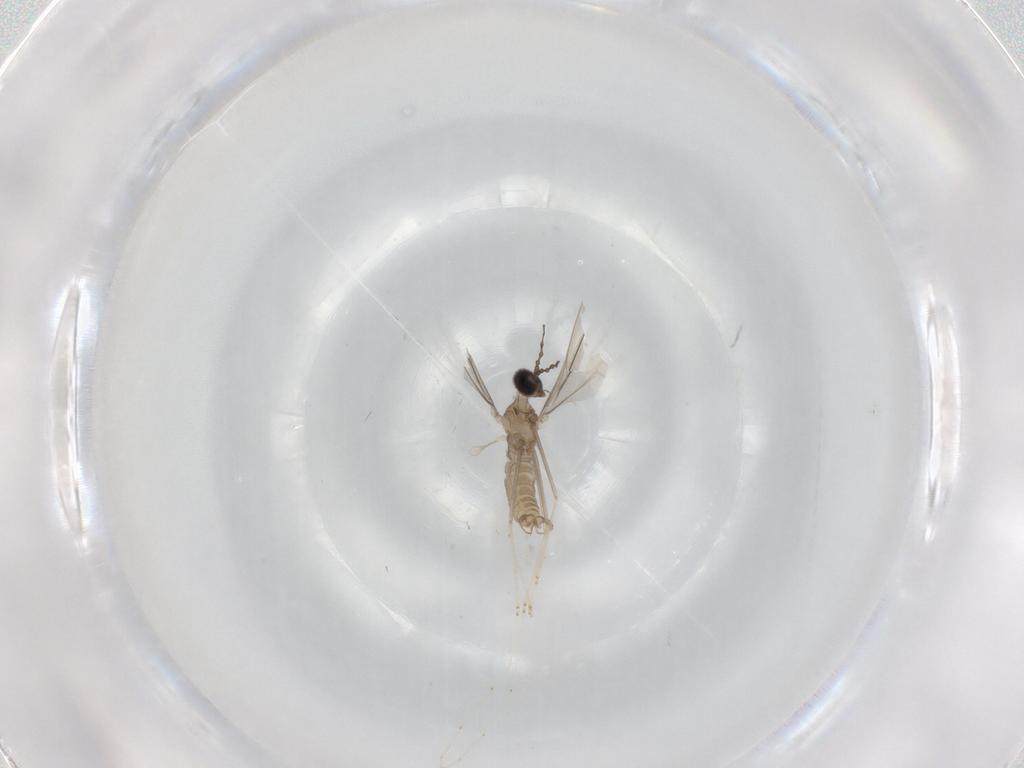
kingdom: Animalia
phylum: Arthropoda
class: Insecta
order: Diptera
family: Cecidomyiidae
